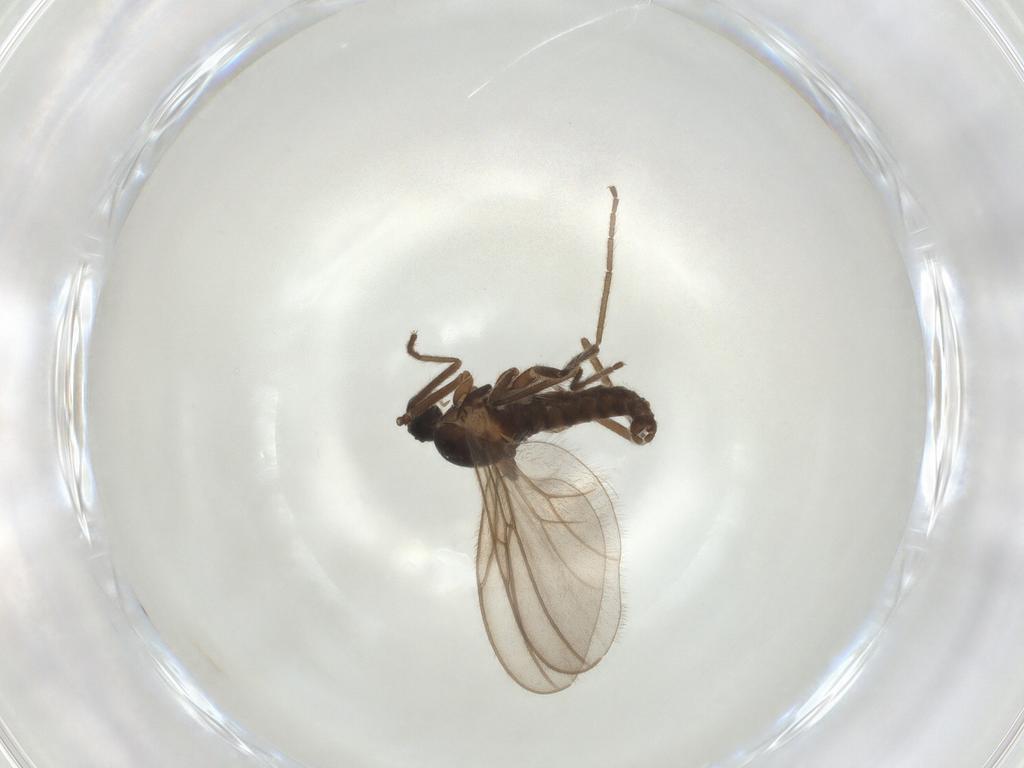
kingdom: Animalia
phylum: Arthropoda
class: Insecta
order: Diptera
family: Cecidomyiidae
